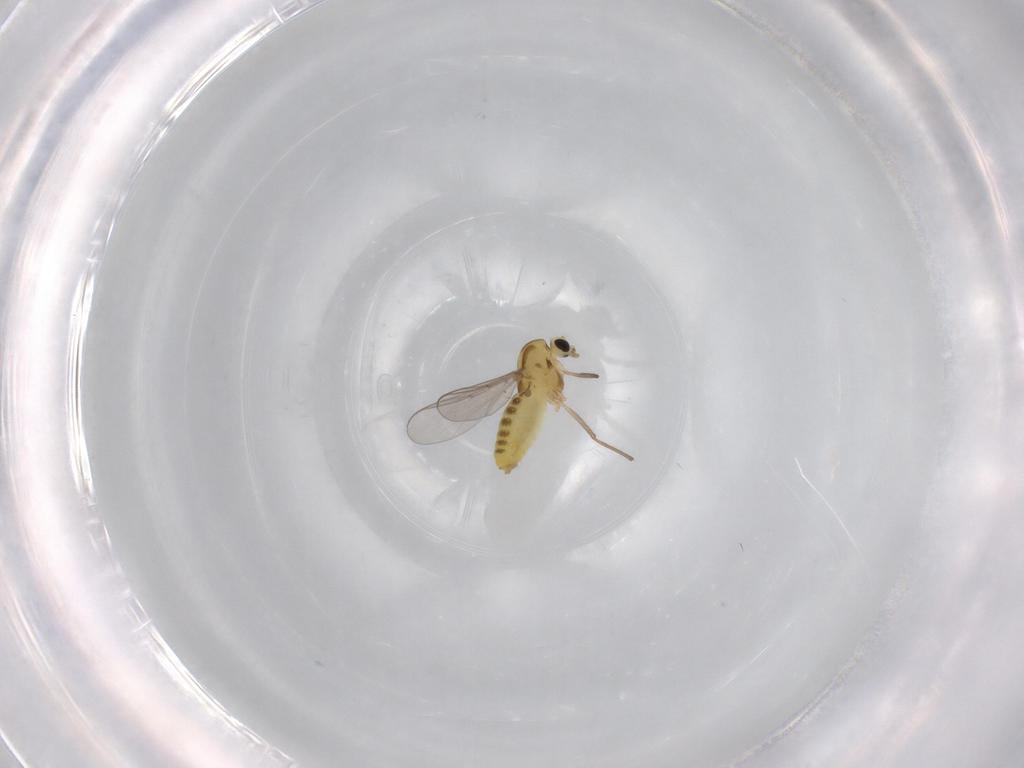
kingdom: Animalia
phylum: Arthropoda
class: Insecta
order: Diptera
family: Chironomidae
